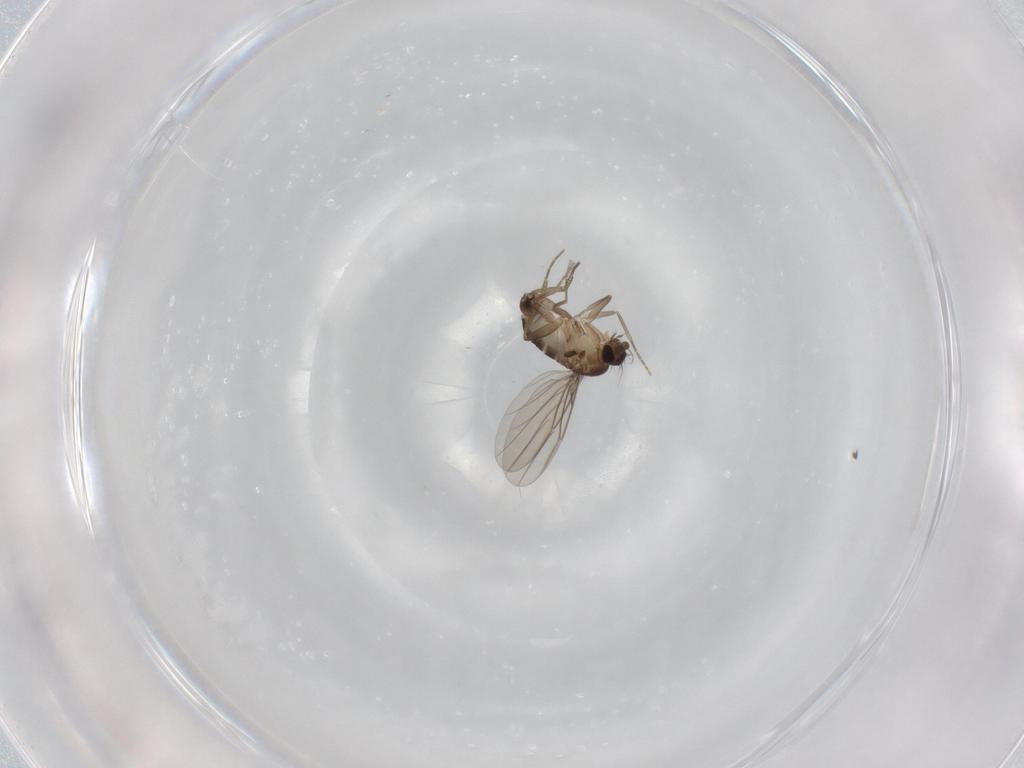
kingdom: Animalia
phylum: Arthropoda
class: Insecta
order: Diptera
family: Phoridae
